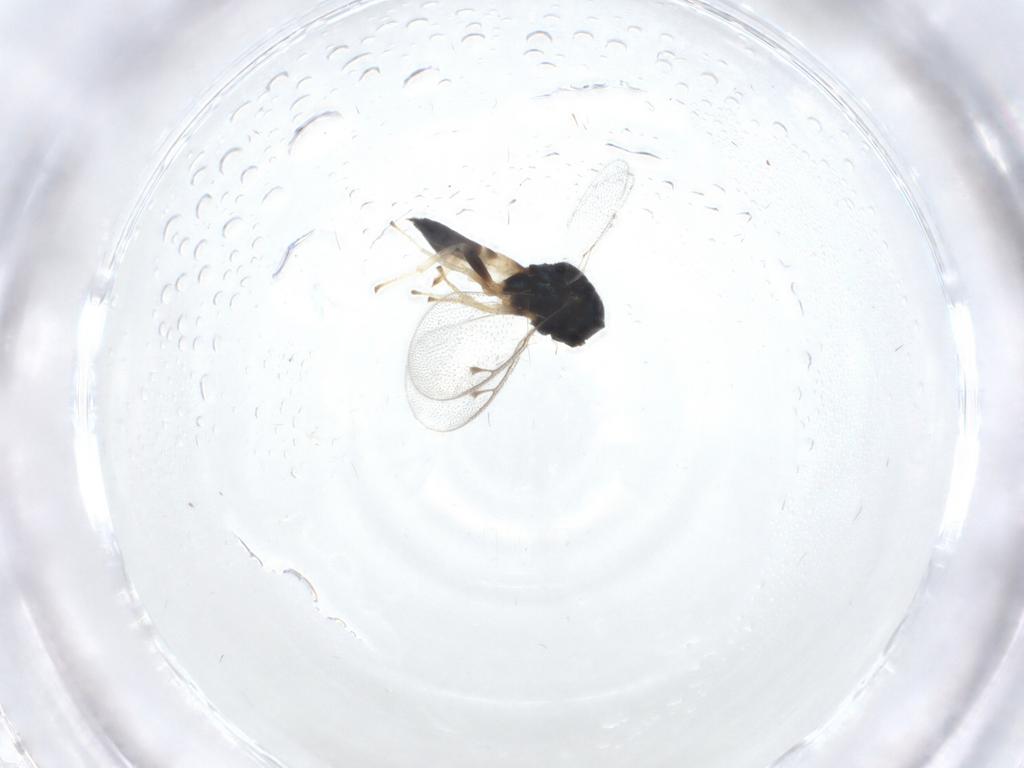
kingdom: Animalia
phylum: Arthropoda
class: Insecta
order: Hymenoptera
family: Pteromalidae
